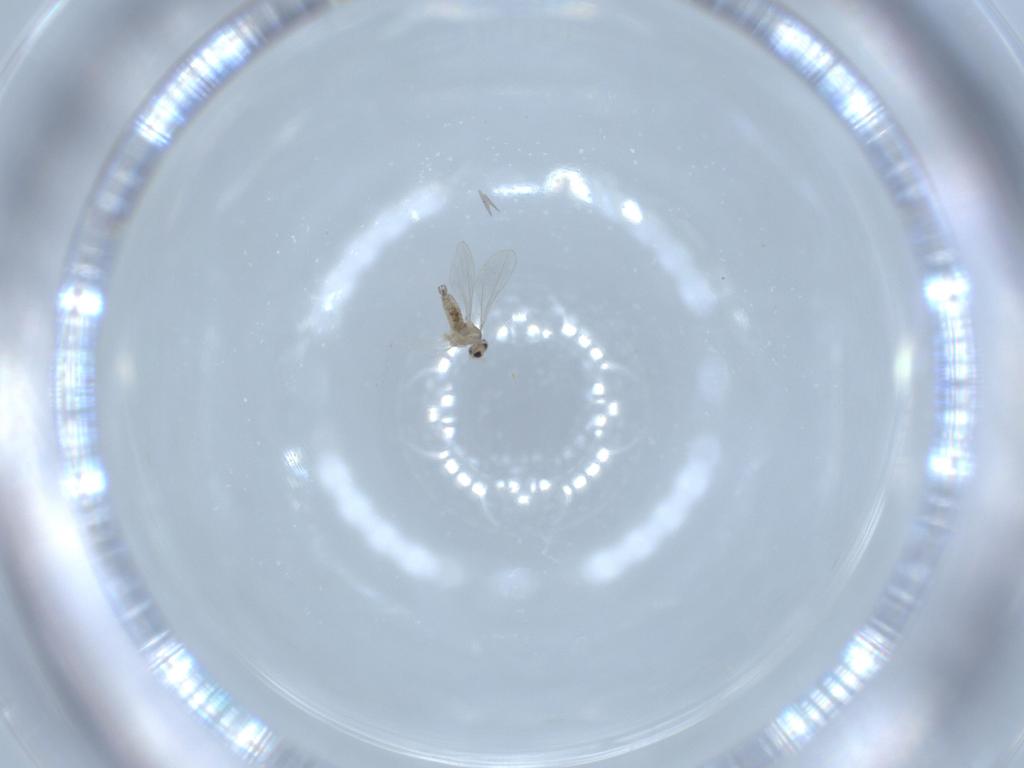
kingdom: Animalia
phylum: Arthropoda
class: Insecta
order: Diptera
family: Cecidomyiidae
